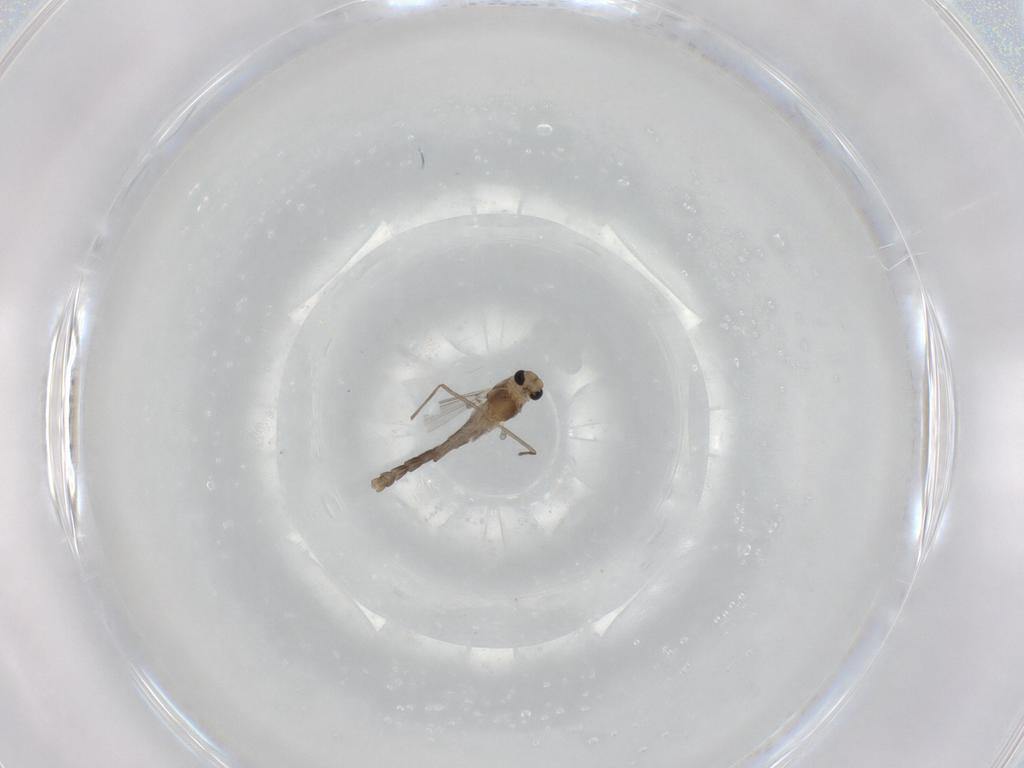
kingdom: Animalia
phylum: Arthropoda
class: Insecta
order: Diptera
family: Chironomidae
